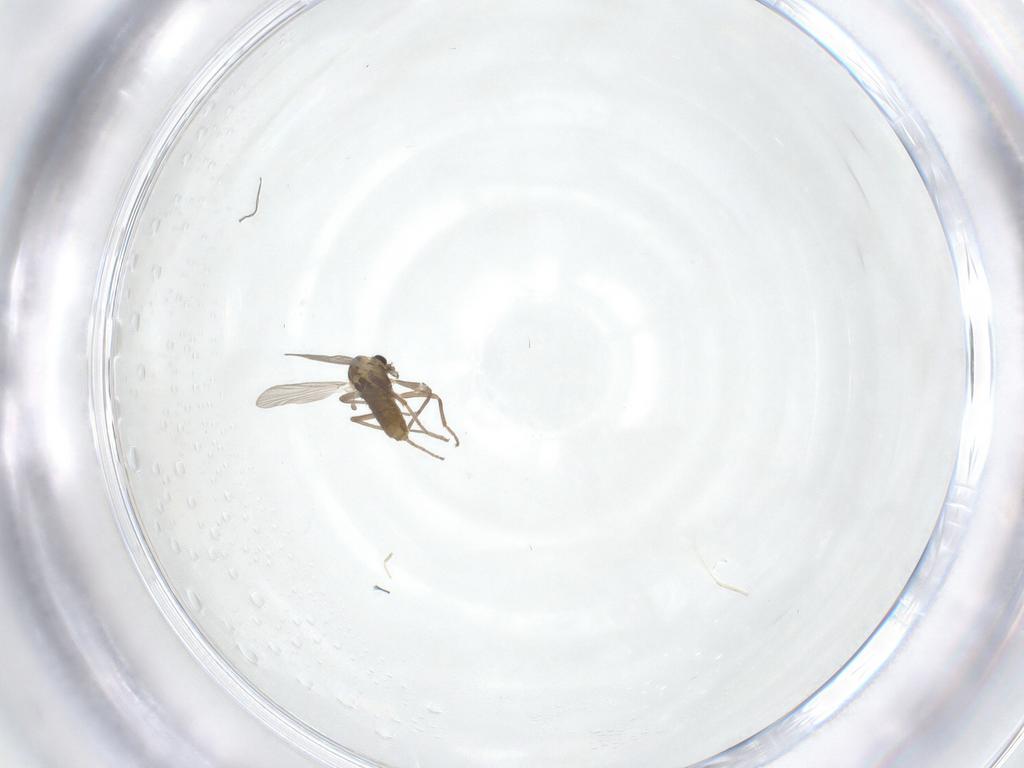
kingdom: Animalia
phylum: Arthropoda
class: Insecta
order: Diptera
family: Chironomidae
